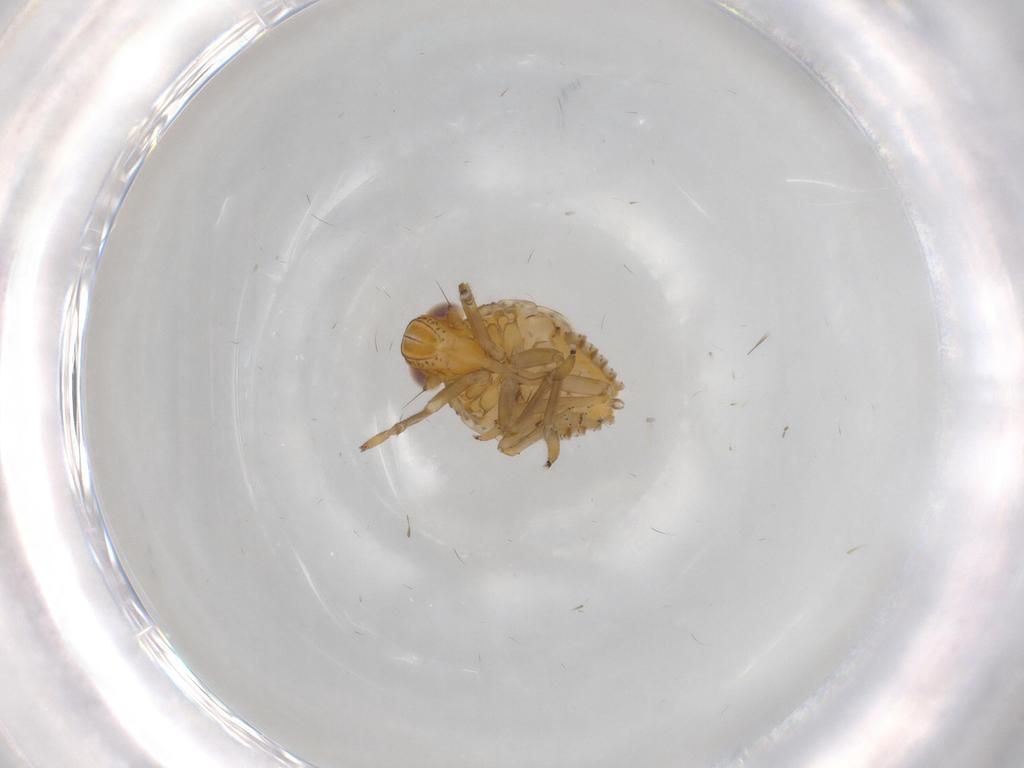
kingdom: Animalia
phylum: Arthropoda
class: Insecta
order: Hemiptera
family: Issidae
